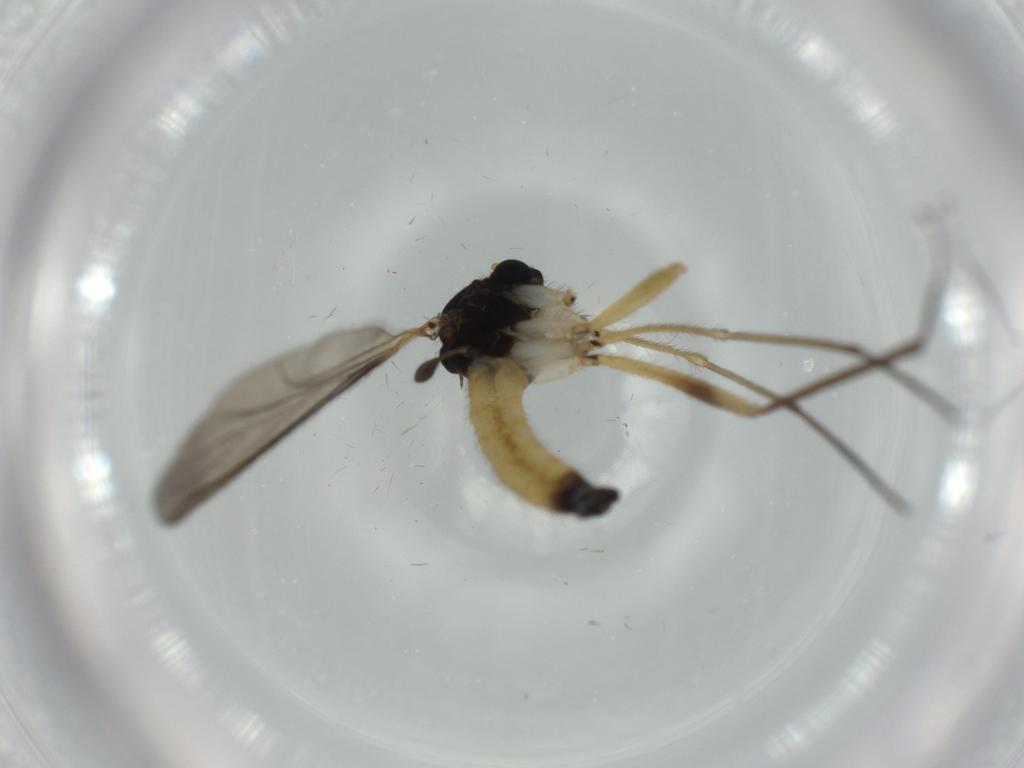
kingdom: Animalia
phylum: Arthropoda
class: Insecta
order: Diptera
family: Sciaridae
